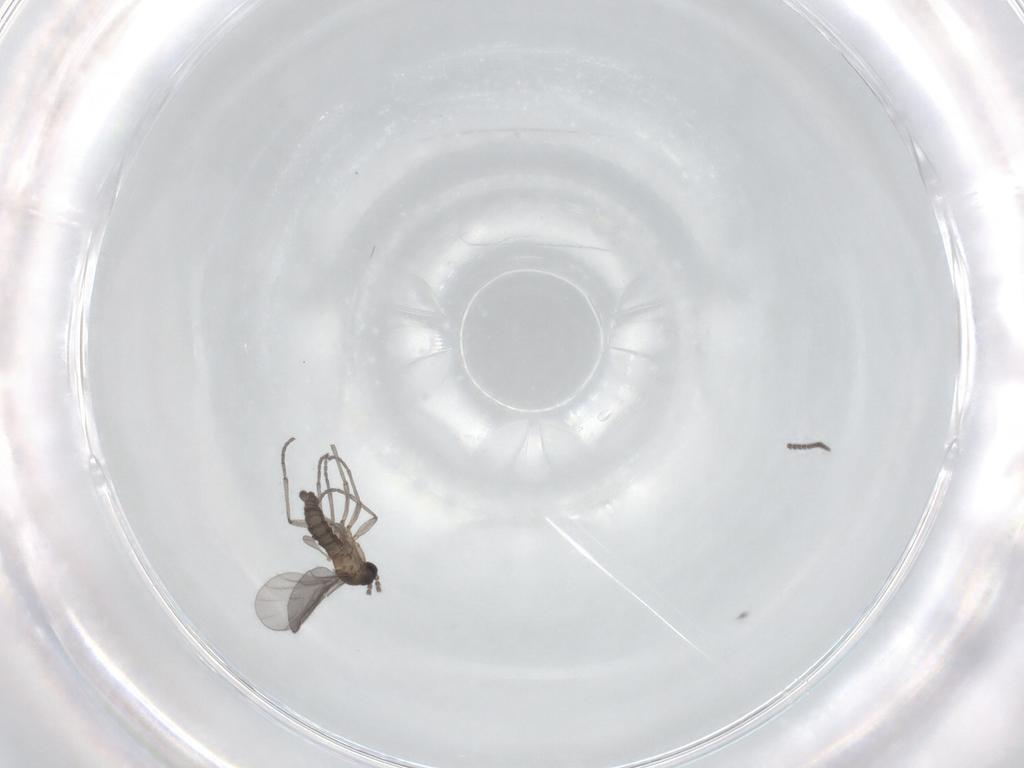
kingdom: Animalia
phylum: Arthropoda
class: Insecta
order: Diptera
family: Sciaridae
